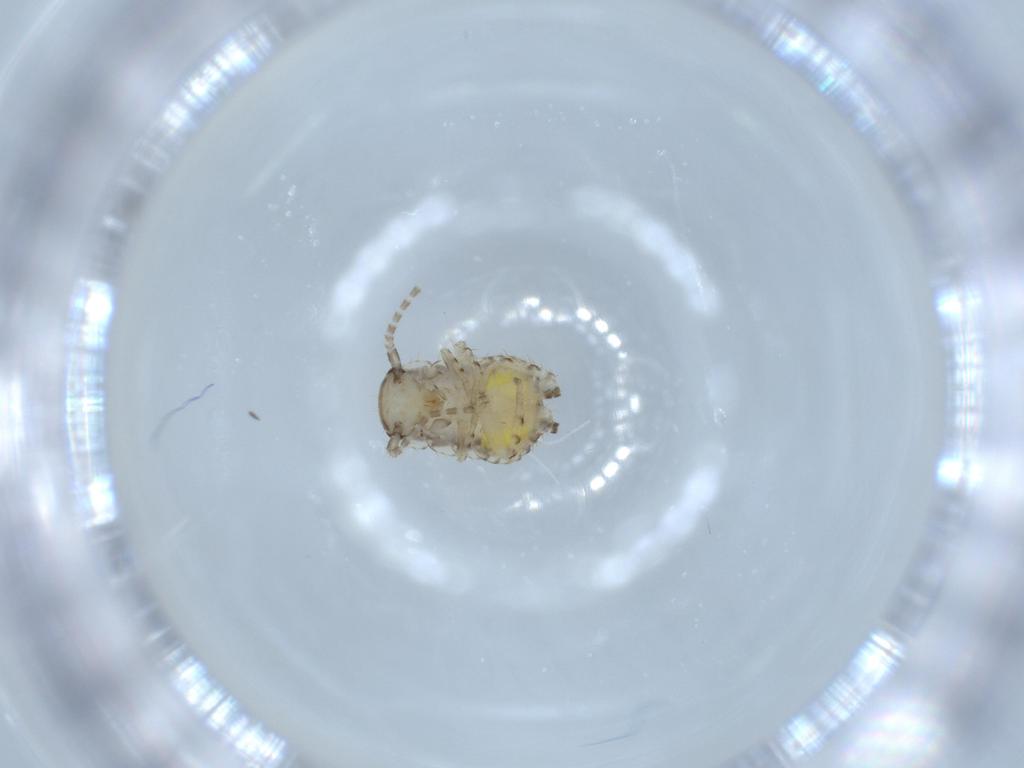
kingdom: Animalia
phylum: Arthropoda
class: Insecta
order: Blattodea
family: Ectobiidae
